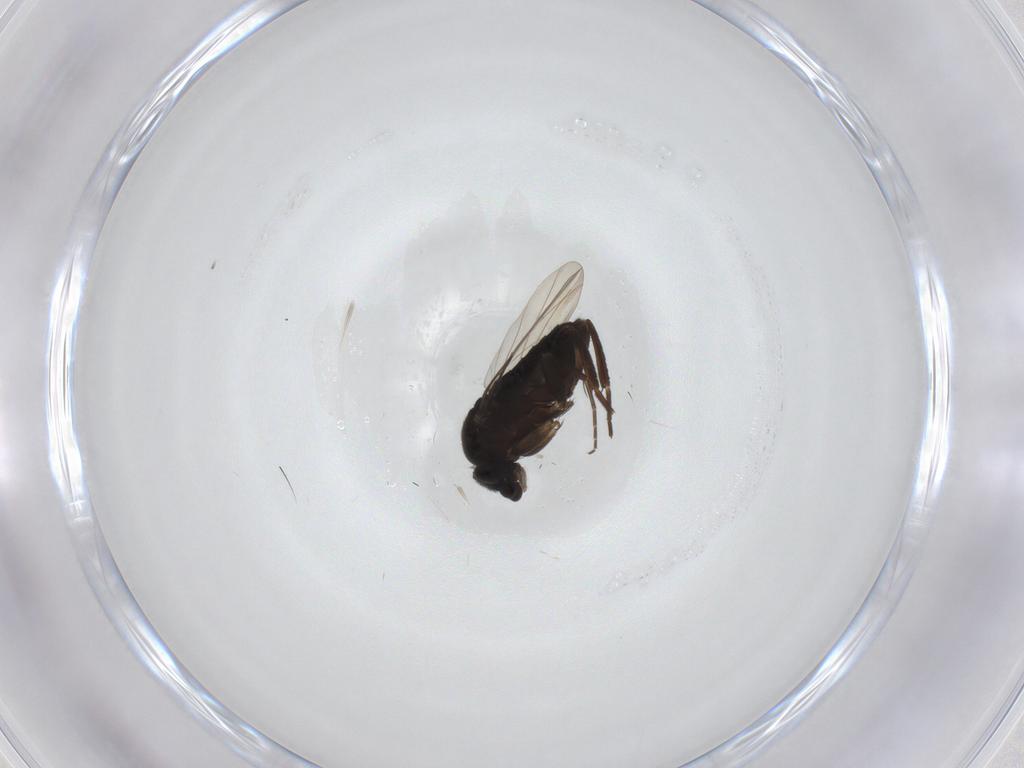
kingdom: Animalia
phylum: Arthropoda
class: Insecta
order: Diptera
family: Phoridae
